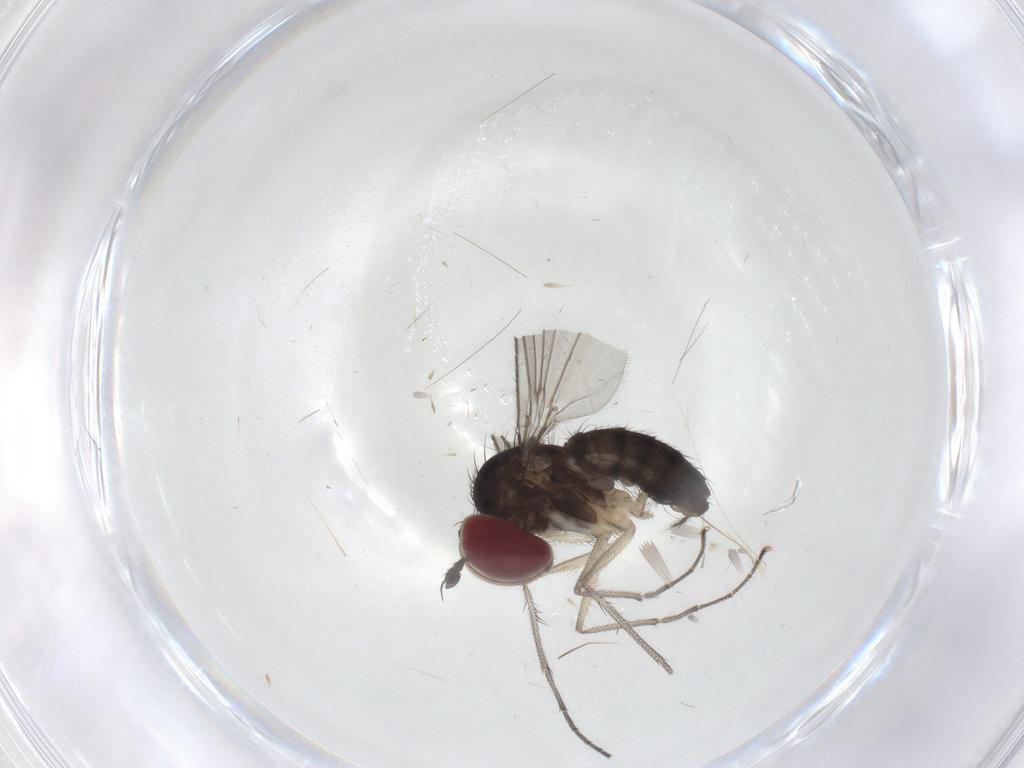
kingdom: Animalia
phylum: Arthropoda
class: Insecta
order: Diptera
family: Cecidomyiidae
